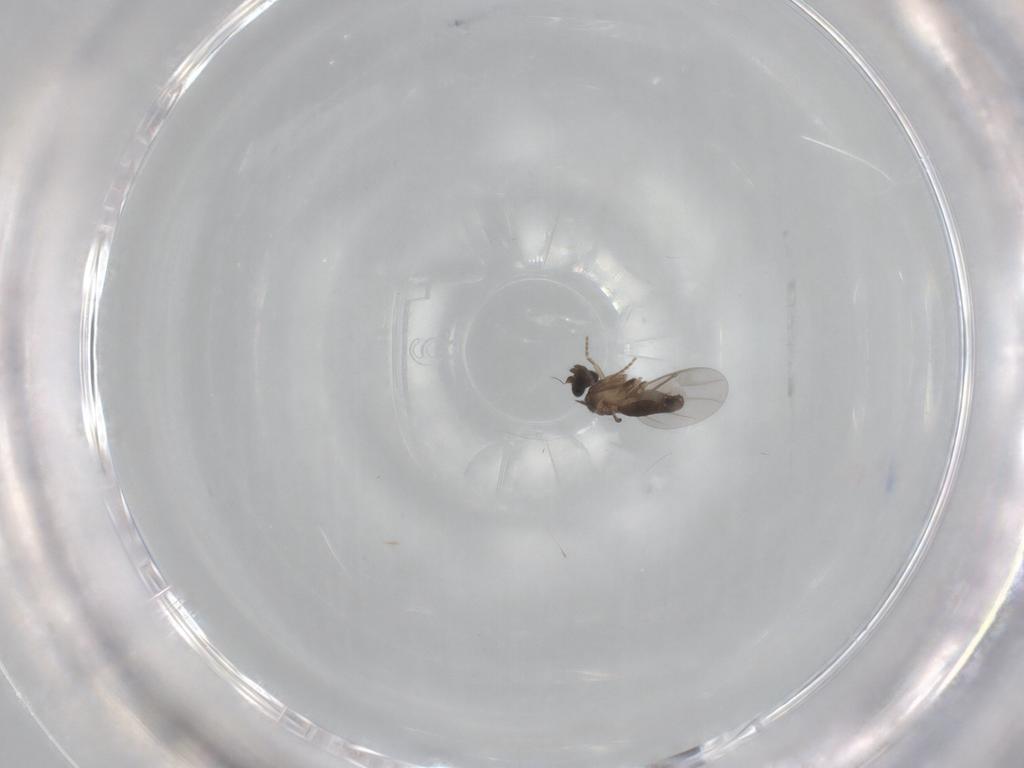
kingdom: Animalia
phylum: Arthropoda
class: Insecta
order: Diptera
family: Phoridae
